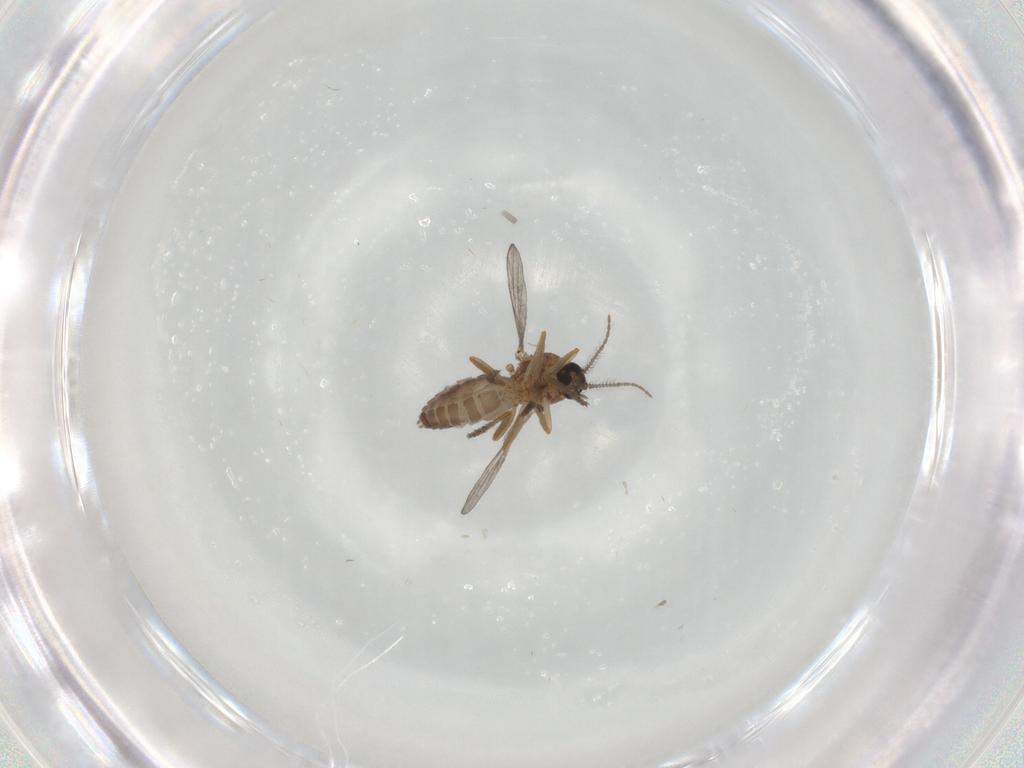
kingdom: Animalia
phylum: Arthropoda
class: Insecta
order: Diptera
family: Ceratopogonidae
